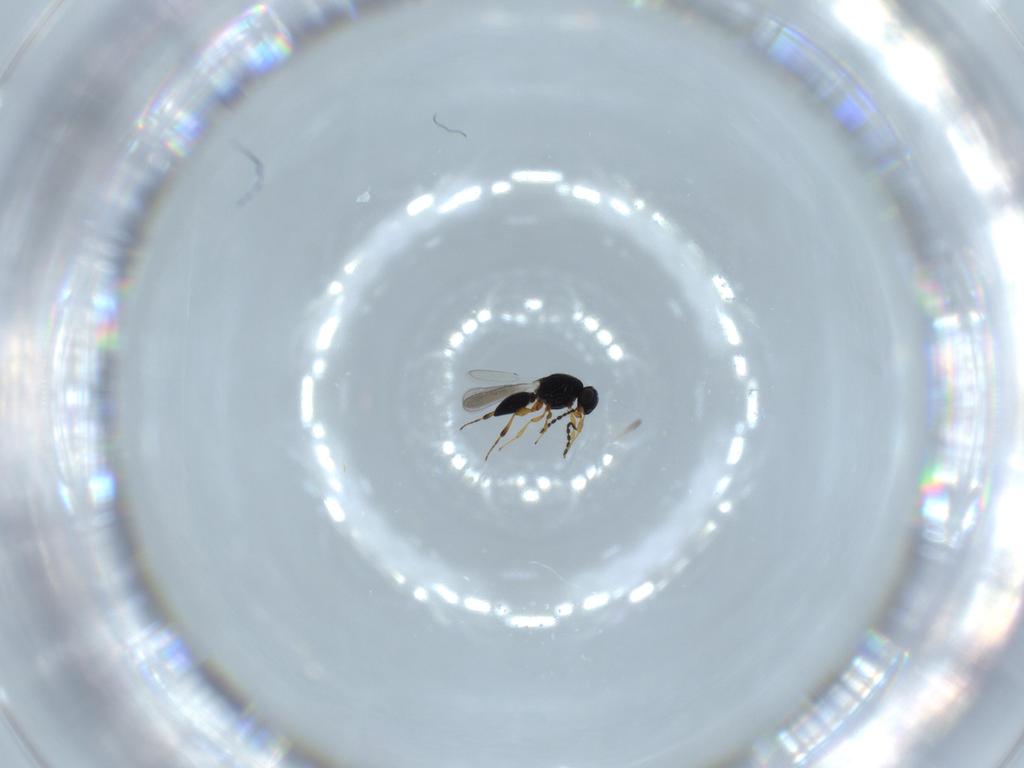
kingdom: Animalia
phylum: Arthropoda
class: Insecta
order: Hymenoptera
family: Platygastridae
